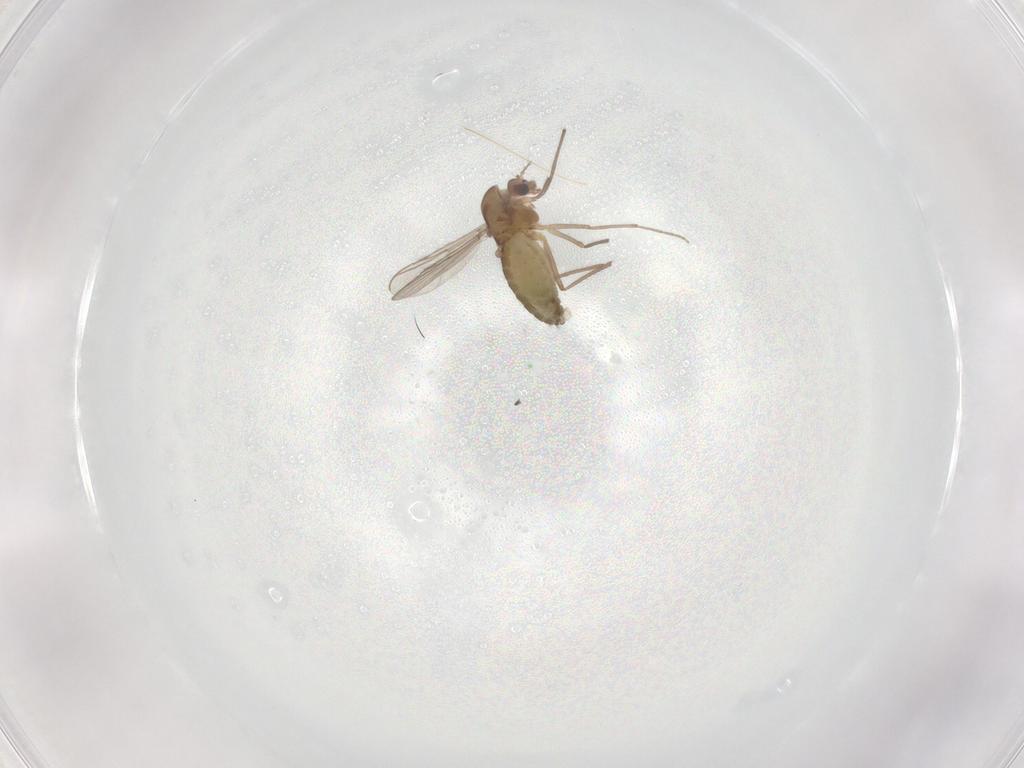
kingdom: Animalia
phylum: Arthropoda
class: Insecta
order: Diptera
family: Chironomidae
